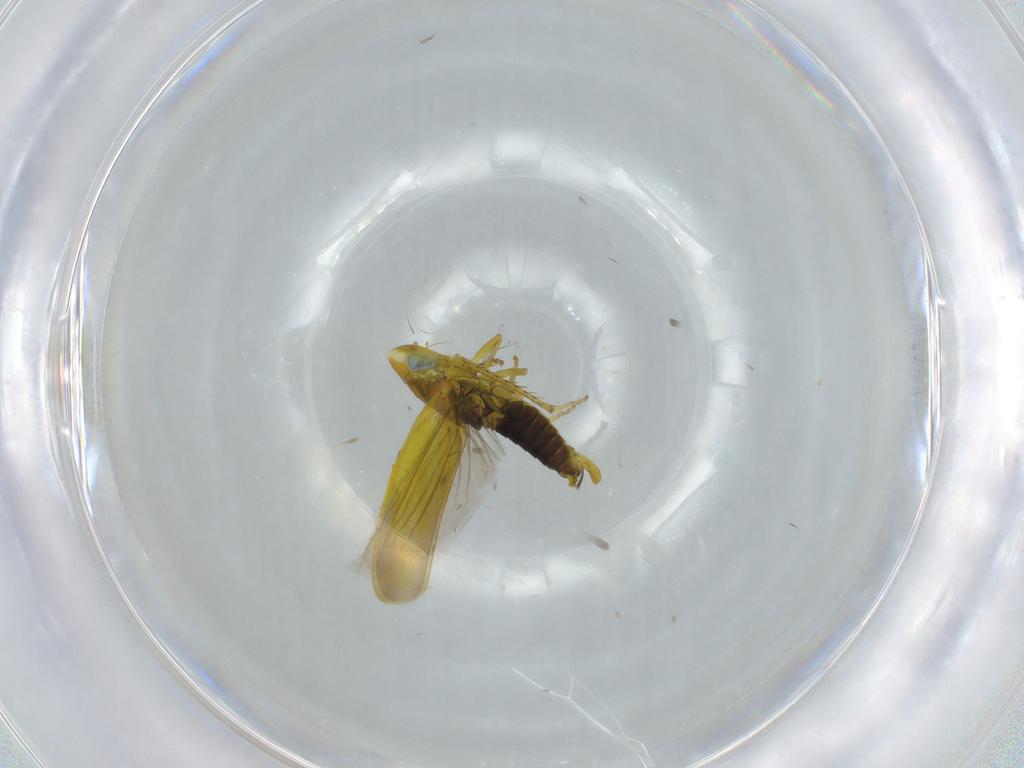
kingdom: Animalia
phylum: Arthropoda
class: Insecta
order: Hemiptera
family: Cicadellidae
